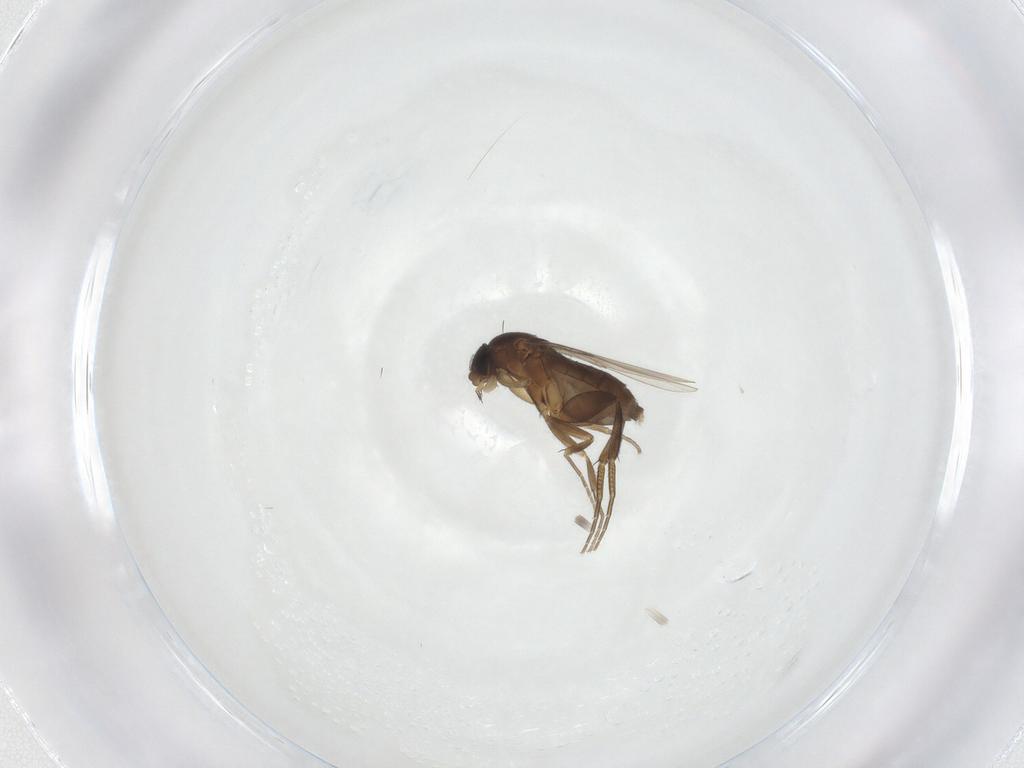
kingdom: Animalia
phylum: Arthropoda
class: Insecta
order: Diptera
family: Phoridae
